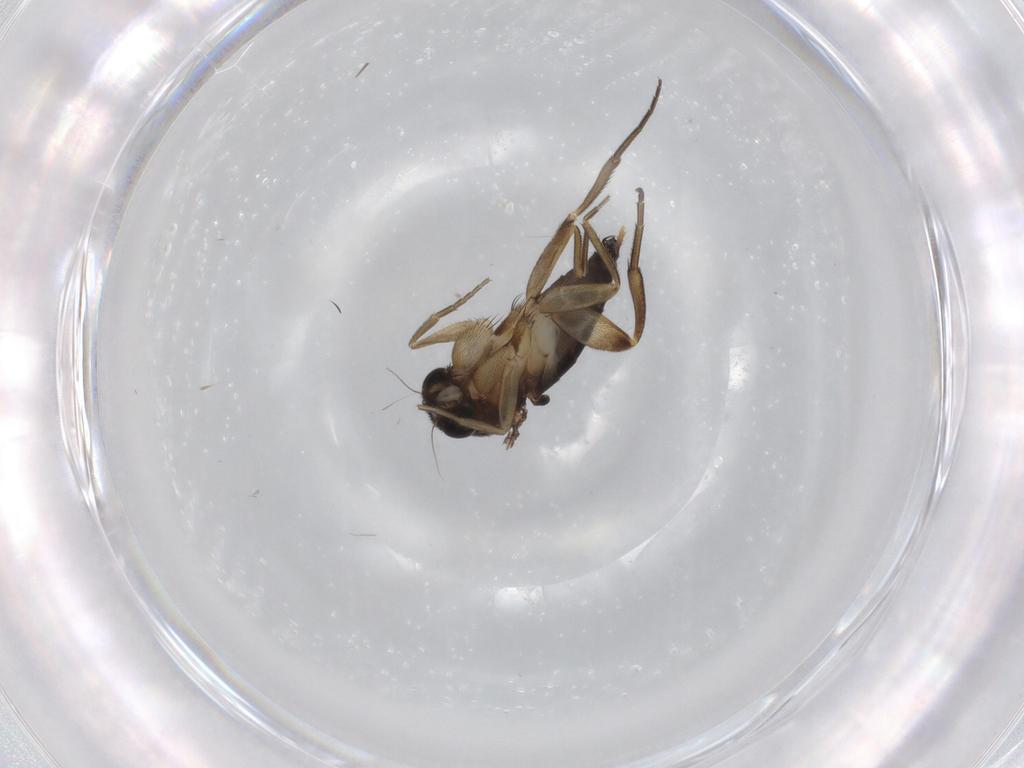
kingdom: Animalia
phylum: Arthropoda
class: Insecta
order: Diptera
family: Phoridae
